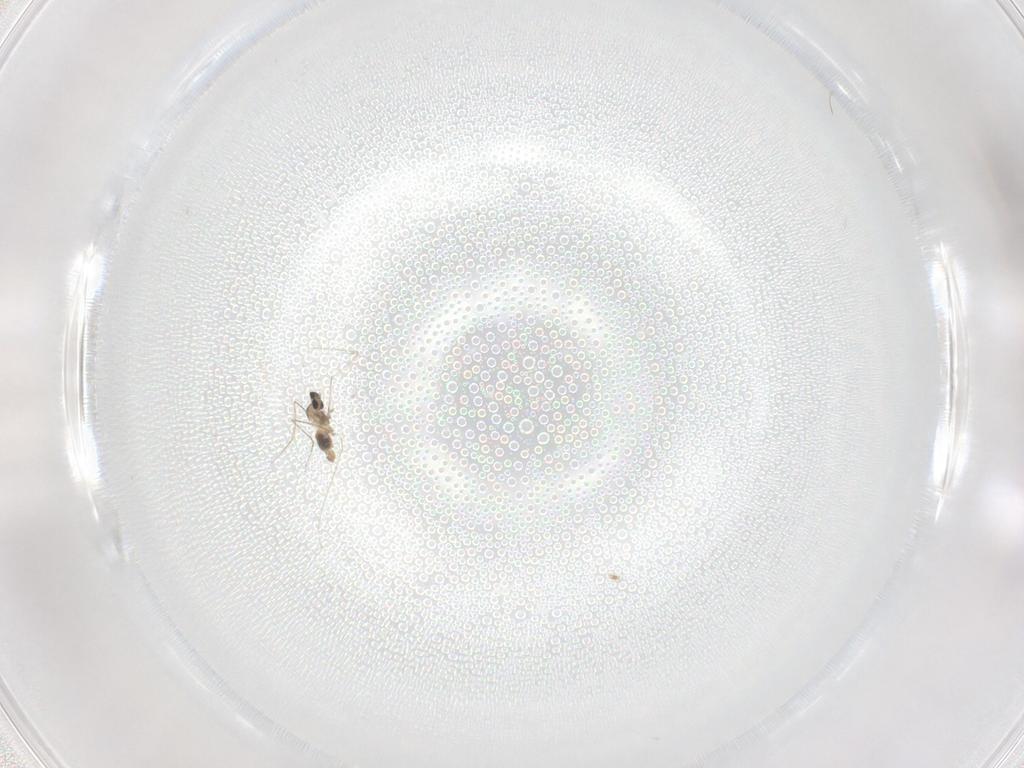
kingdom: Animalia
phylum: Arthropoda
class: Insecta
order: Diptera
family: Cecidomyiidae
